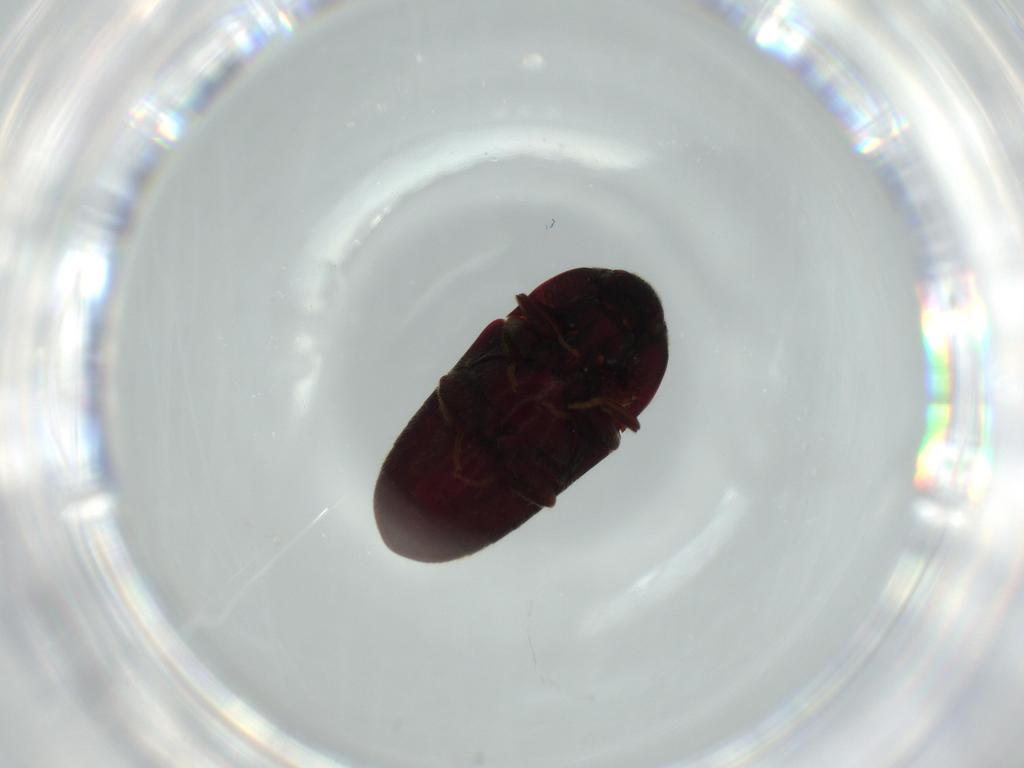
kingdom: Animalia
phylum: Arthropoda
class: Insecta
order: Coleoptera
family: Throscidae
